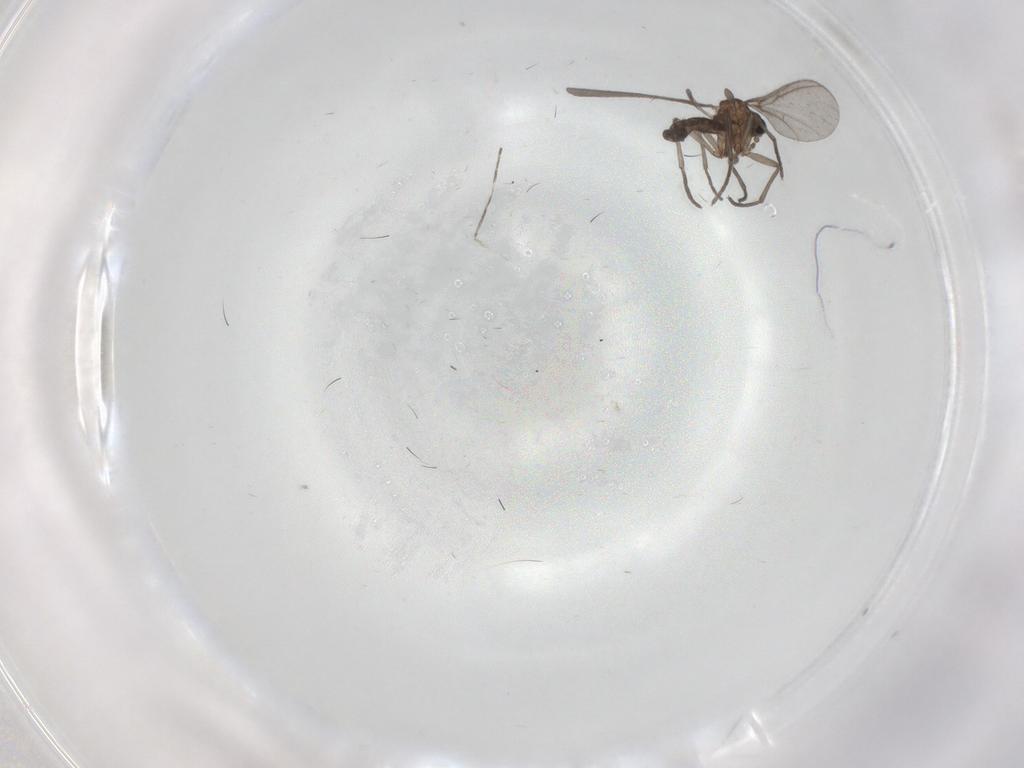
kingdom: Animalia
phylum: Arthropoda
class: Insecta
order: Diptera
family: Sciaridae
